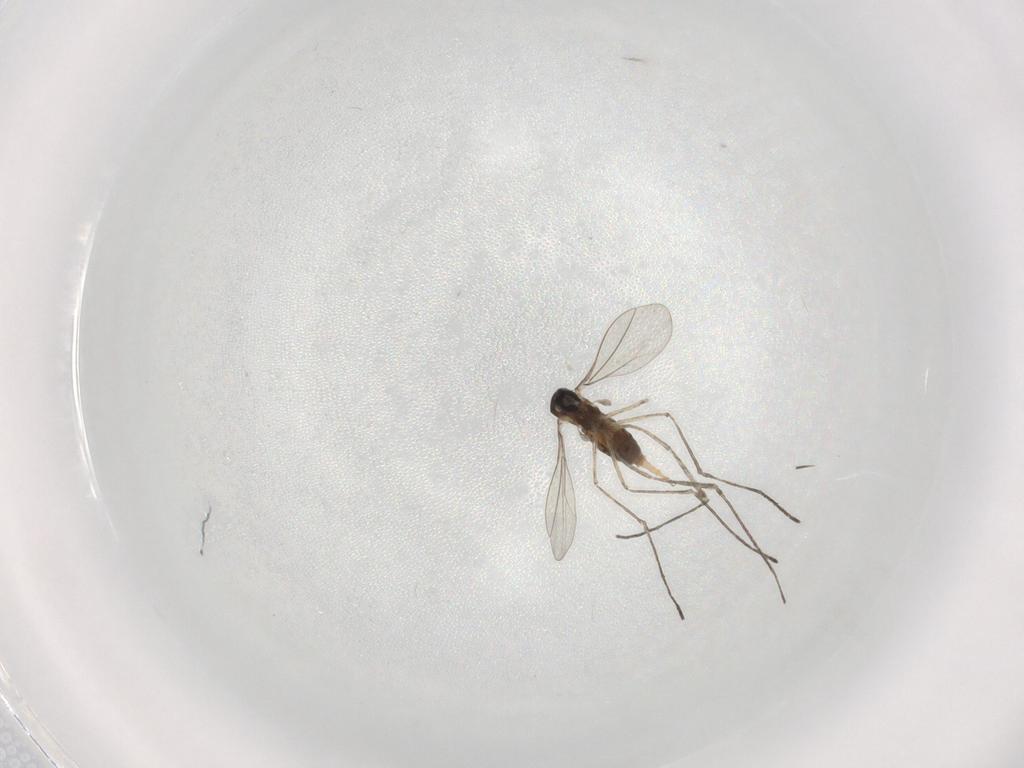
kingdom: Animalia
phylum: Arthropoda
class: Insecta
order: Diptera
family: Cecidomyiidae
